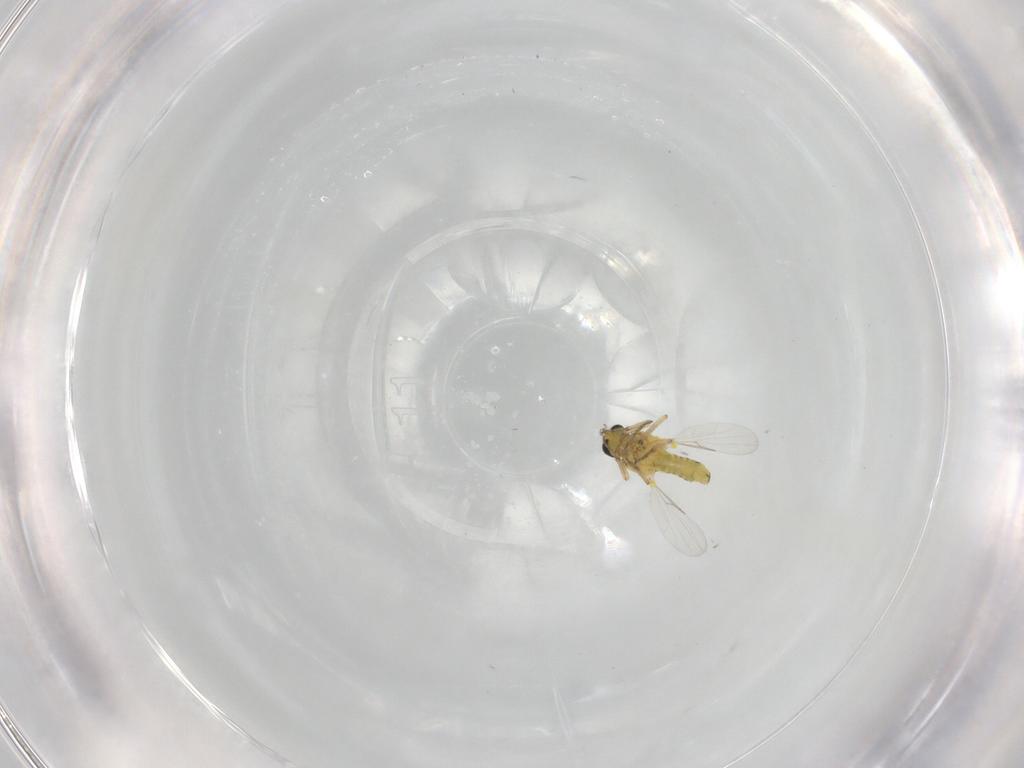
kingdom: Animalia
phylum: Arthropoda
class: Insecta
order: Diptera
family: Ceratopogonidae
